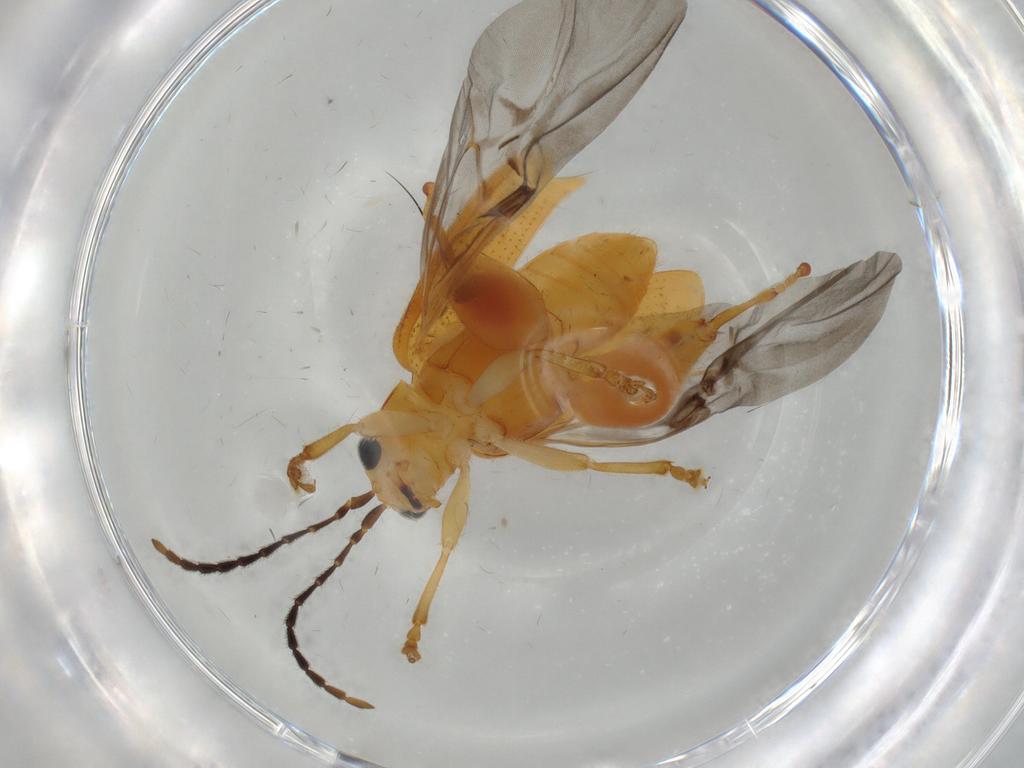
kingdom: Animalia
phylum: Arthropoda
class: Insecta
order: Coleoptera
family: Chrysomelidae
